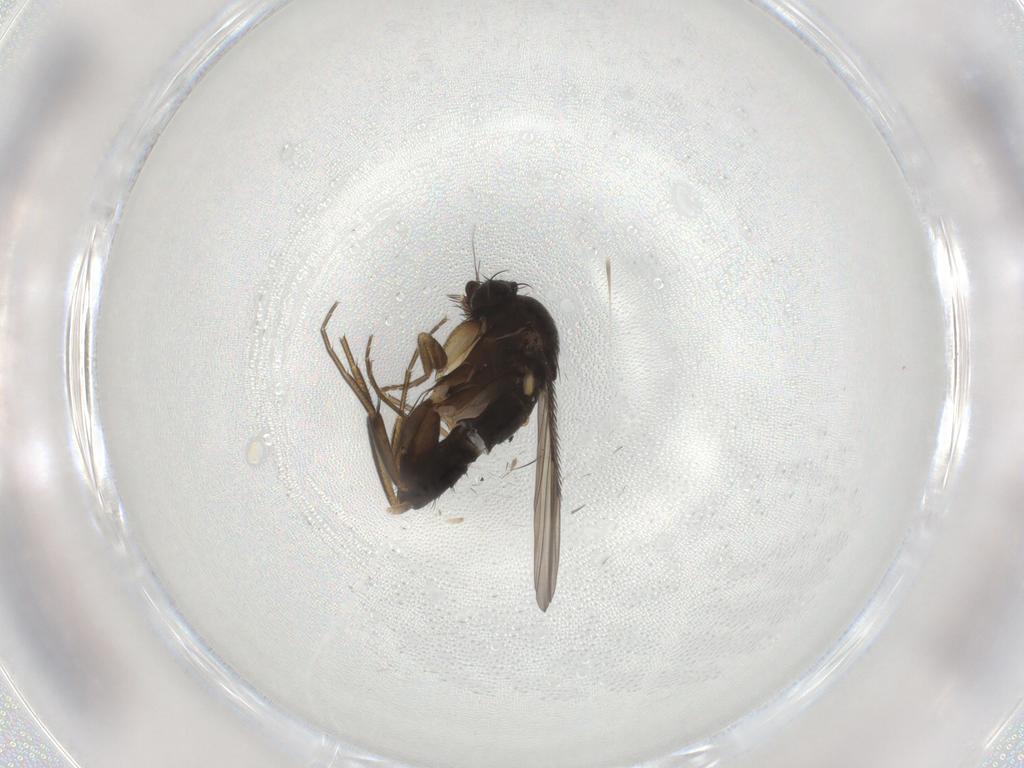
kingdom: Animalia
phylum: Arthropoda
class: Insecta
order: Diptera
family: Phoridae
